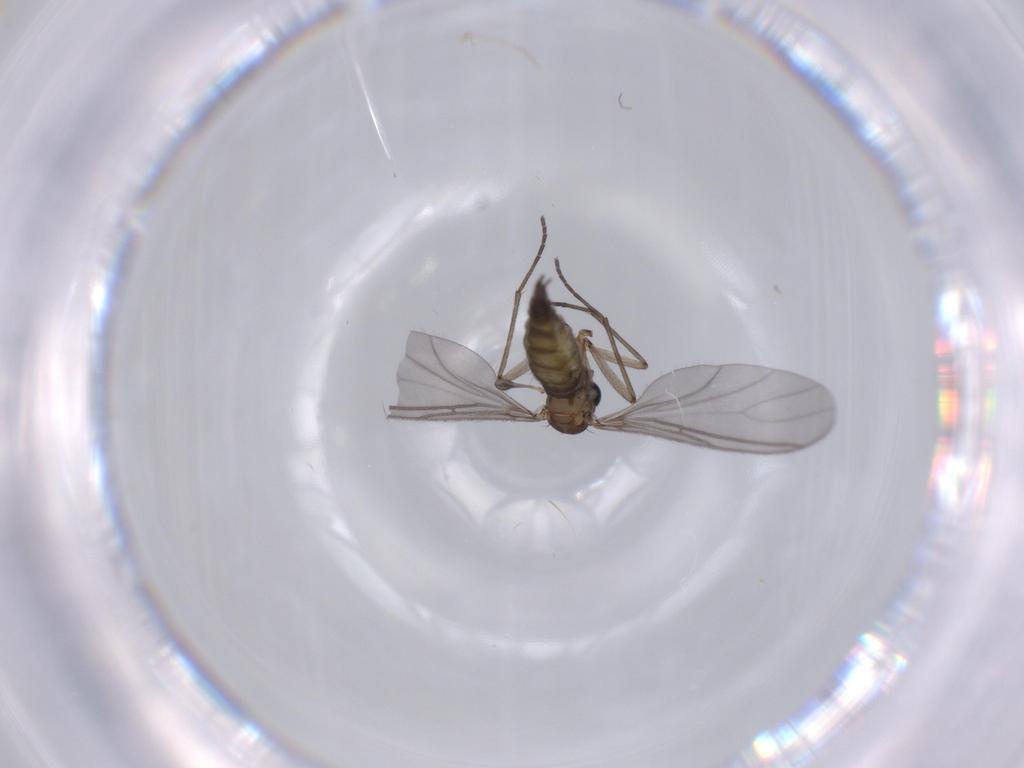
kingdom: Animalia
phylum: Arthropoda
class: Insecta
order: Diptera
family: Sciaridae
